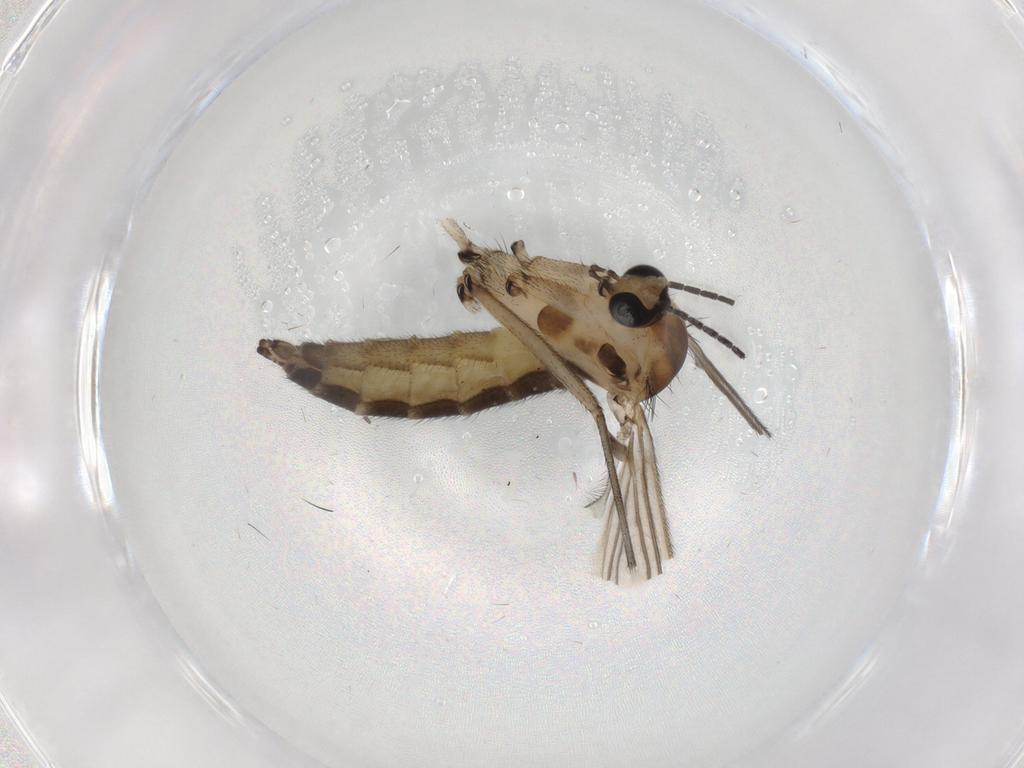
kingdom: Animalia
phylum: Arthropoda
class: Insecta
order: Diptera
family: Sciaridae
